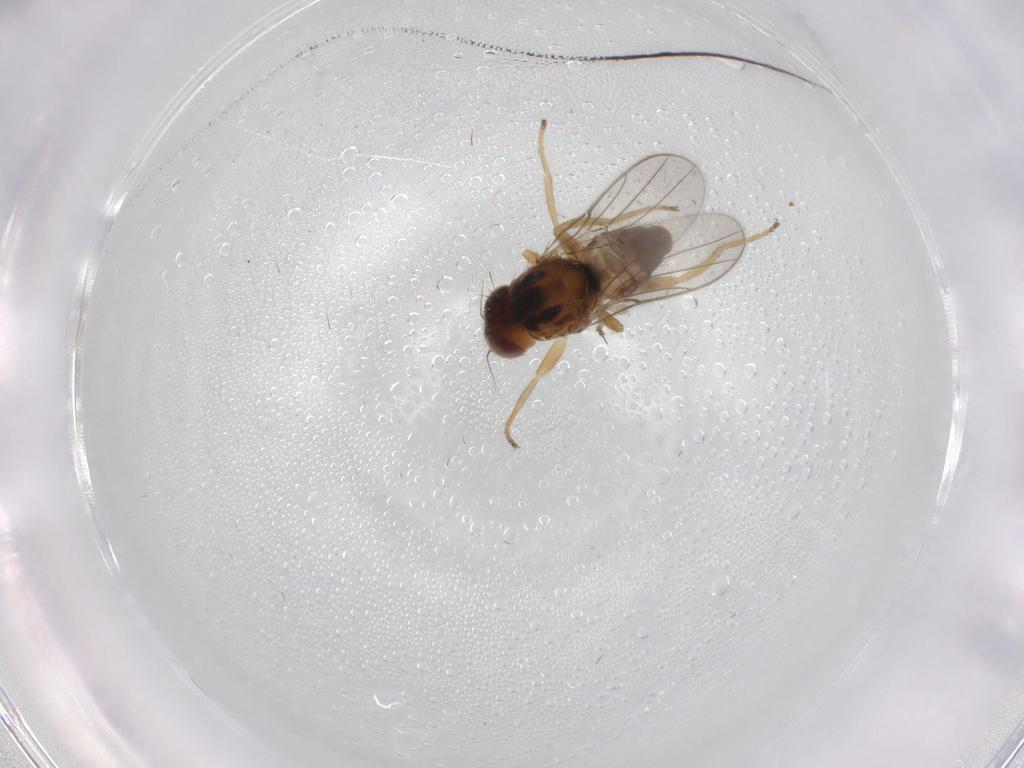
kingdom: Animalia
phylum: Arthropoda
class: Insecta
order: Diptera
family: Chloropidae
